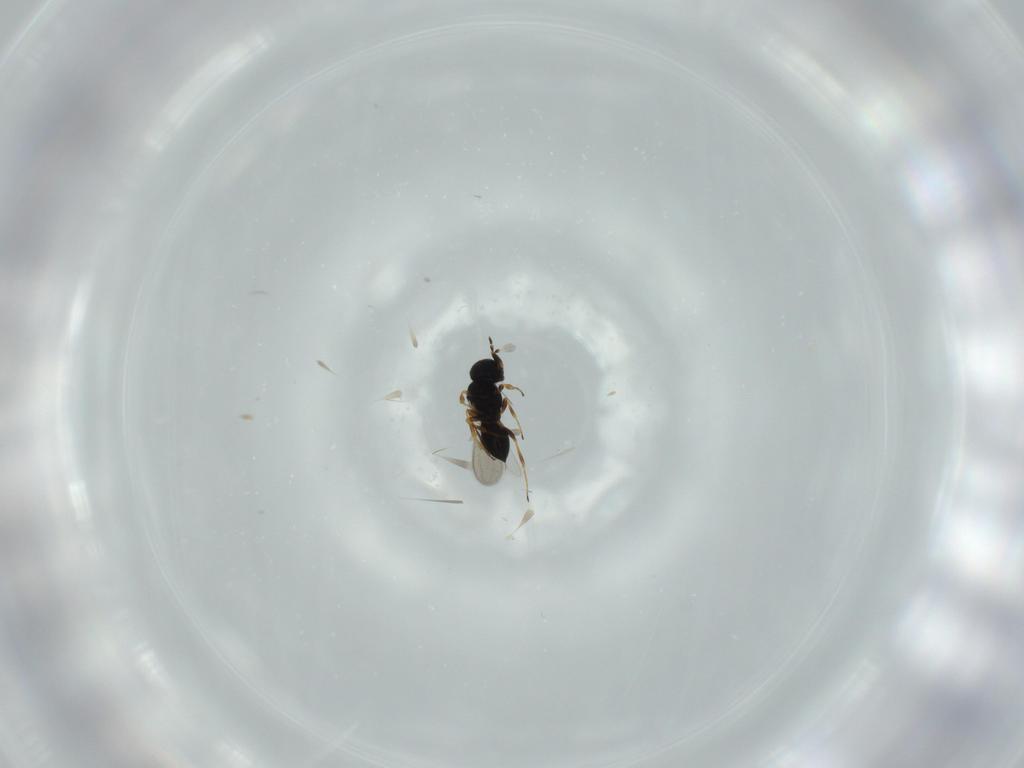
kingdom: Animalia
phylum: Arthropoda
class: Insecta
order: Hymenoptera
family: Scelionidae
